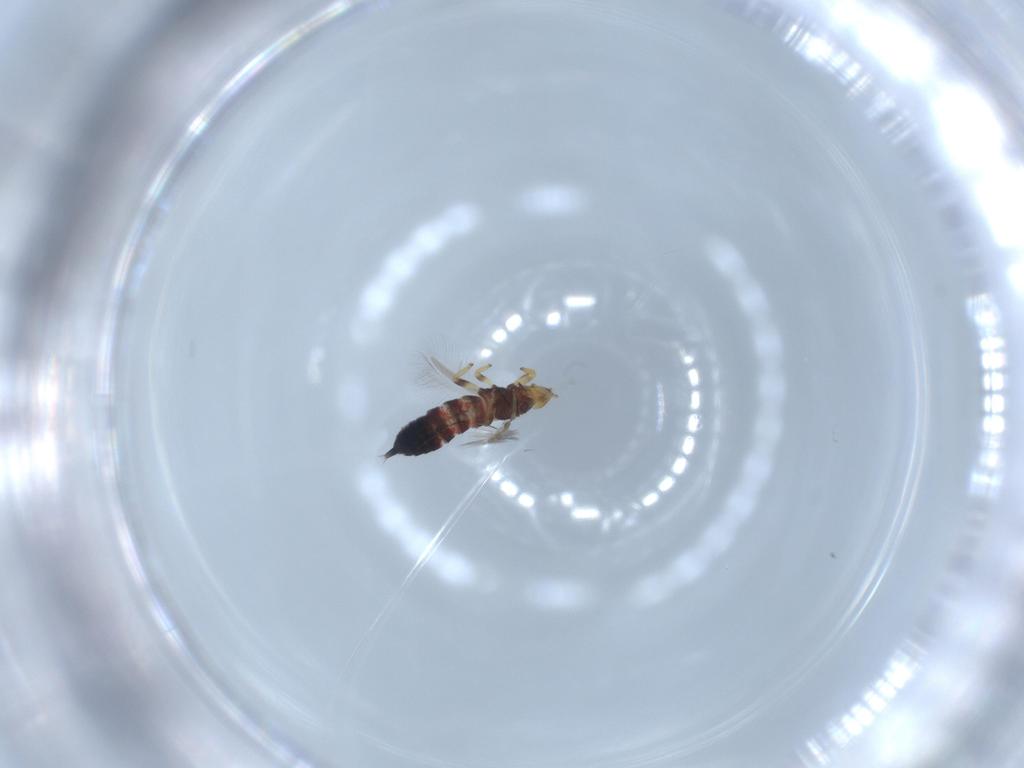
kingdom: Animalia
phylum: Arthropoda
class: Insecta
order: Thysanoptera
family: Phlaeothripidae
